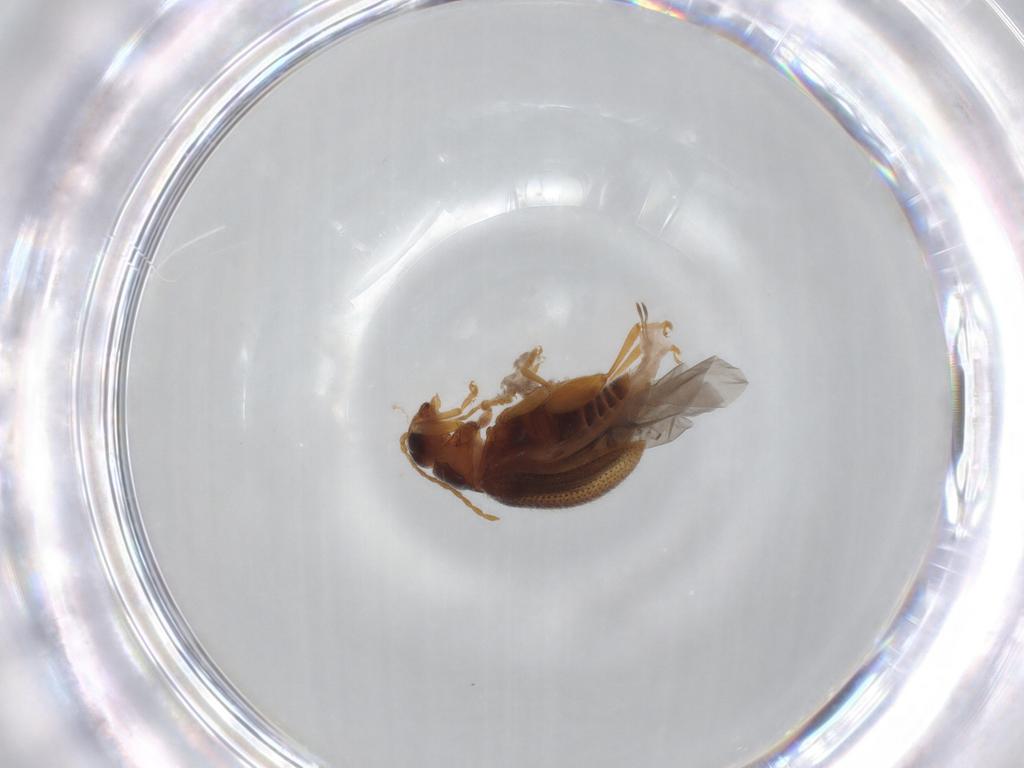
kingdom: Animalia
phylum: Arthropoda
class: Insecta
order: Coleoptera
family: Chrysomelidae
